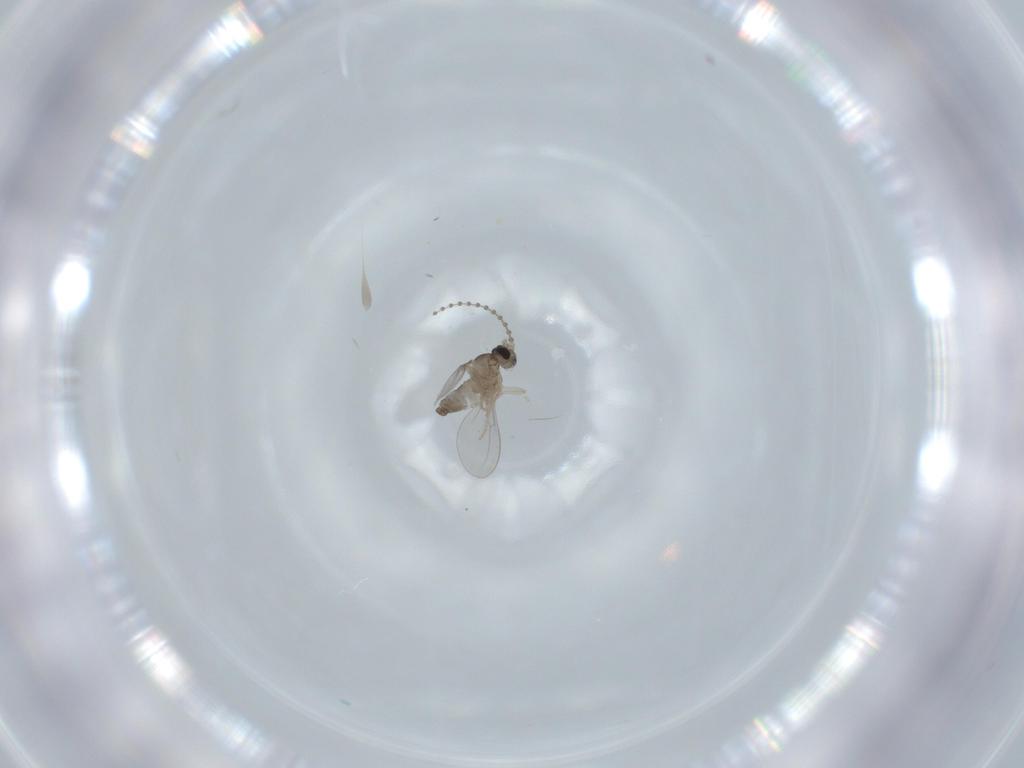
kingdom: Animalia
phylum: Arthropoda
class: Insecta
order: Diptera
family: Cecidomyiidae
